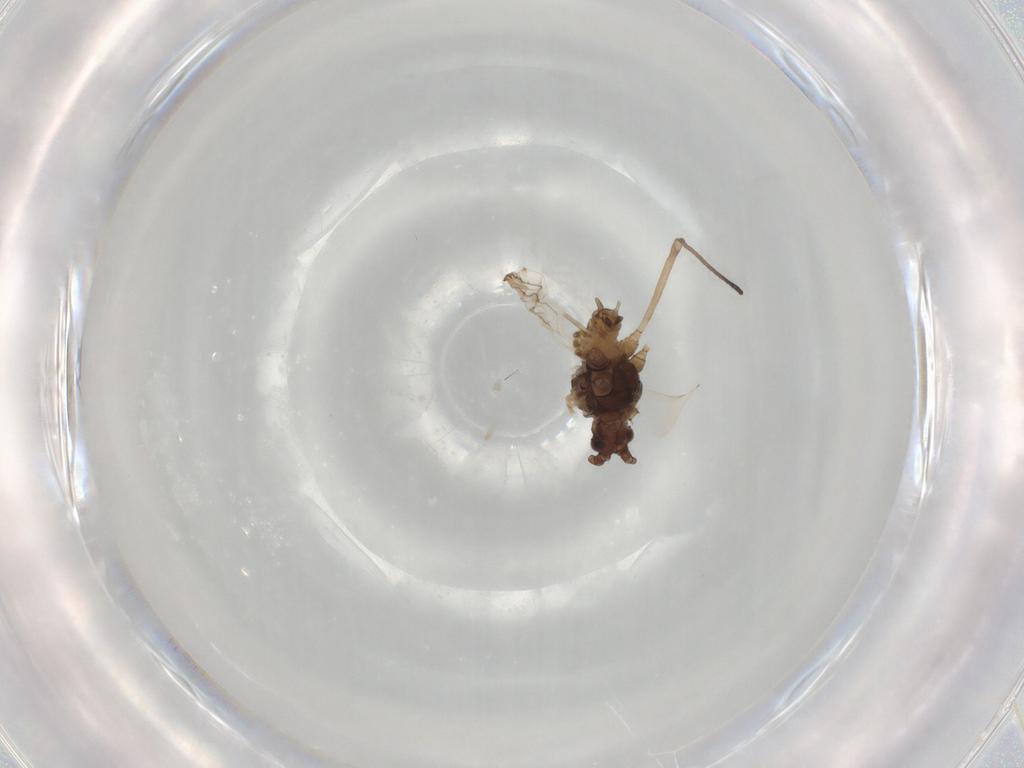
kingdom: Animalia
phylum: Arthropoda
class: Insecta
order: Hemiptera
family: Aphididae
